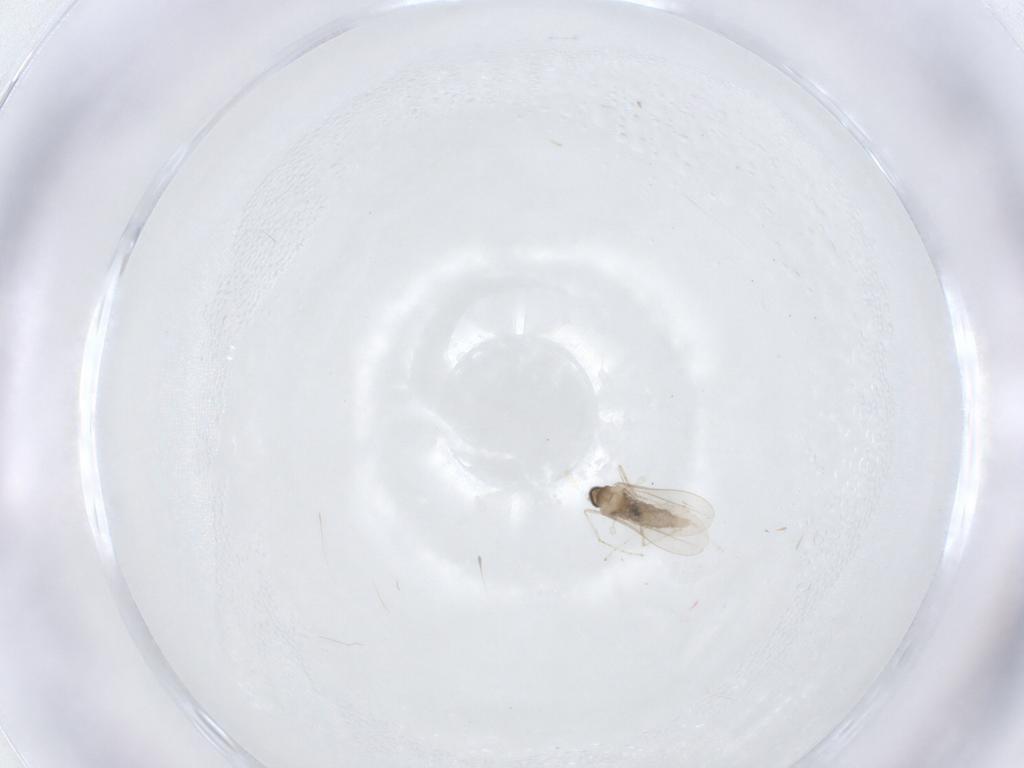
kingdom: Animalia
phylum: Arthropoda
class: Insecta
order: Diptera
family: Cecidomyiidae
